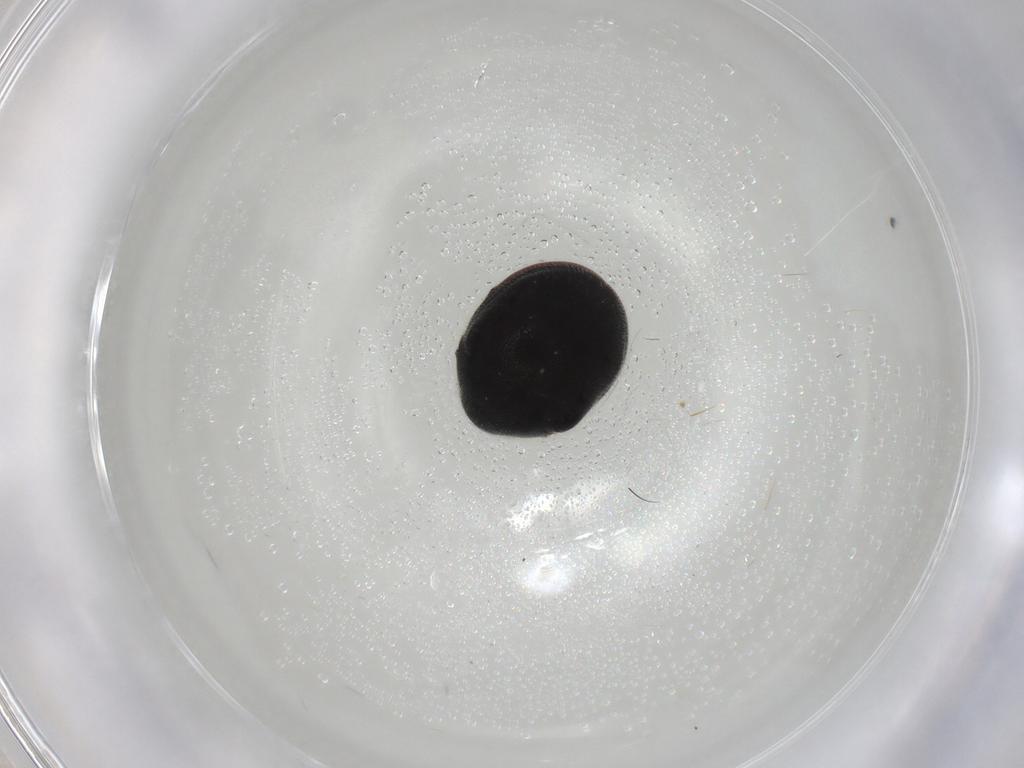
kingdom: Animalia
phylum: Arthropoda
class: Insecta
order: Coleoptera
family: Ptinidae
